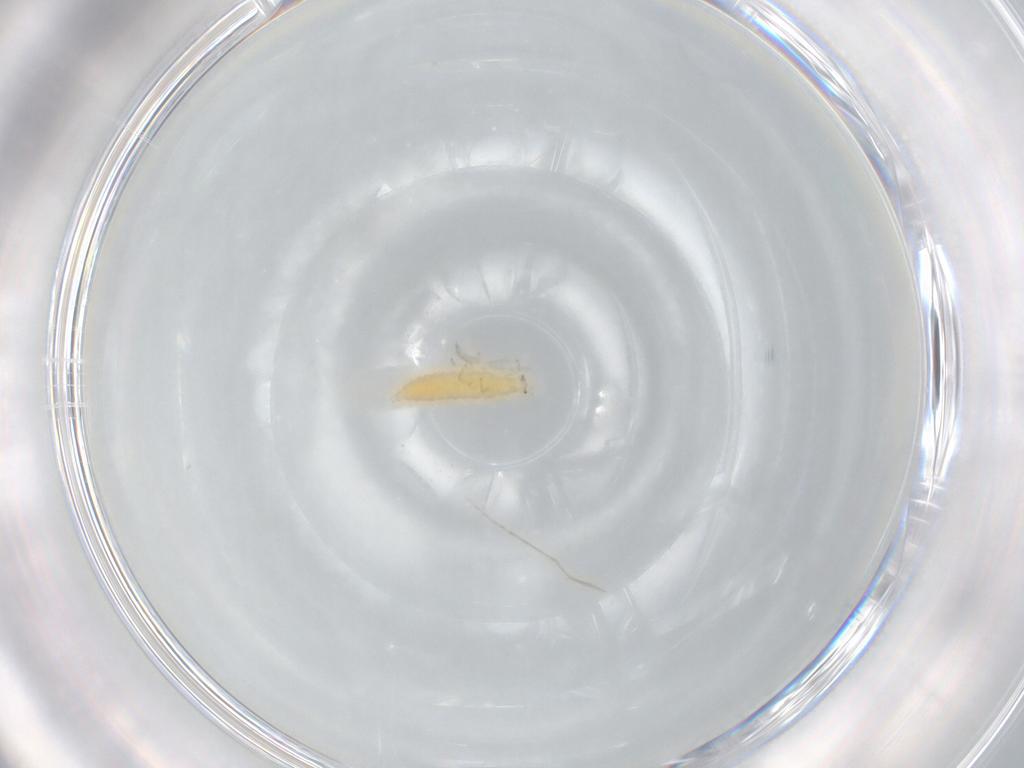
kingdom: Animalia
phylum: Arthropoda
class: Insecta
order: Thysanoptera
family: Thripidae
